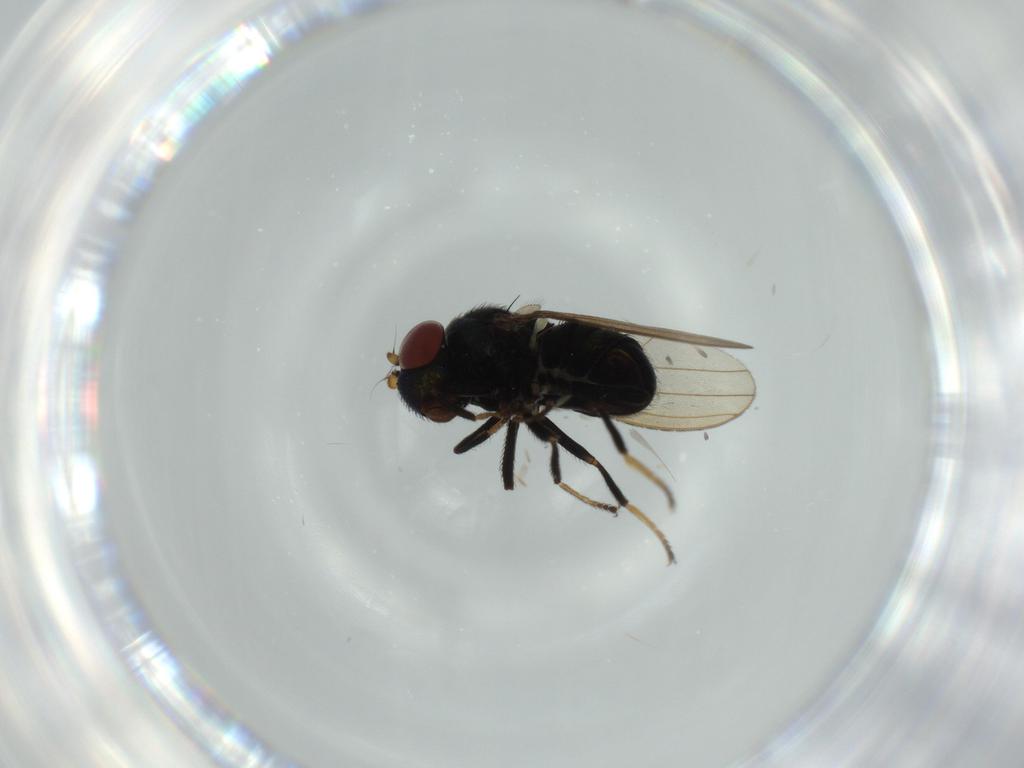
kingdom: Animalia
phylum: Arthropoda
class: Insecta
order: Diptera
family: Ephydridae
